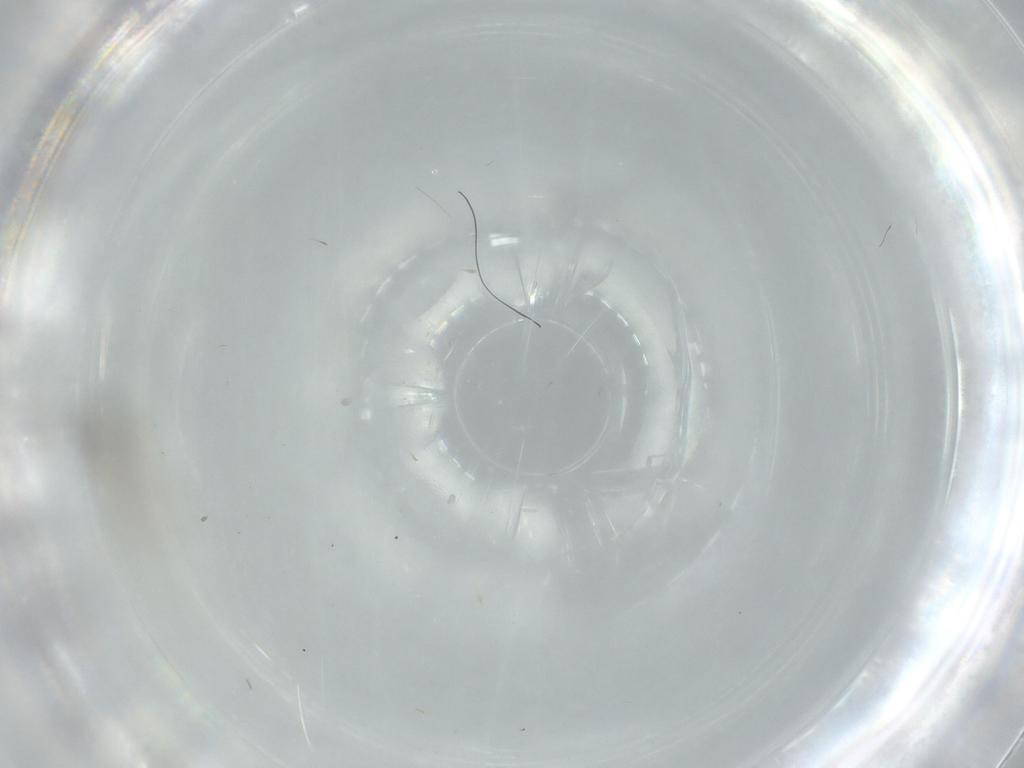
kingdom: Animalia
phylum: Arthropoda
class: Insecta
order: Diptera
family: Cecidomyiidae
